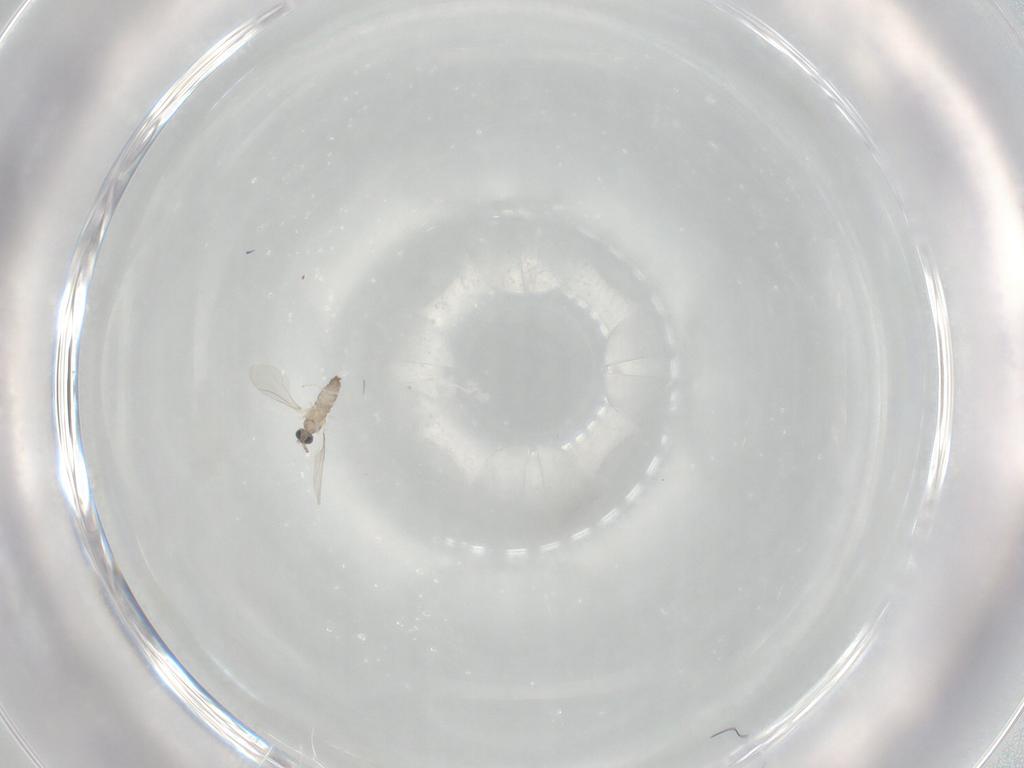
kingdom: Animalia
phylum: Arthropoda
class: Insecta
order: Diptera
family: Cecidomyiidae
